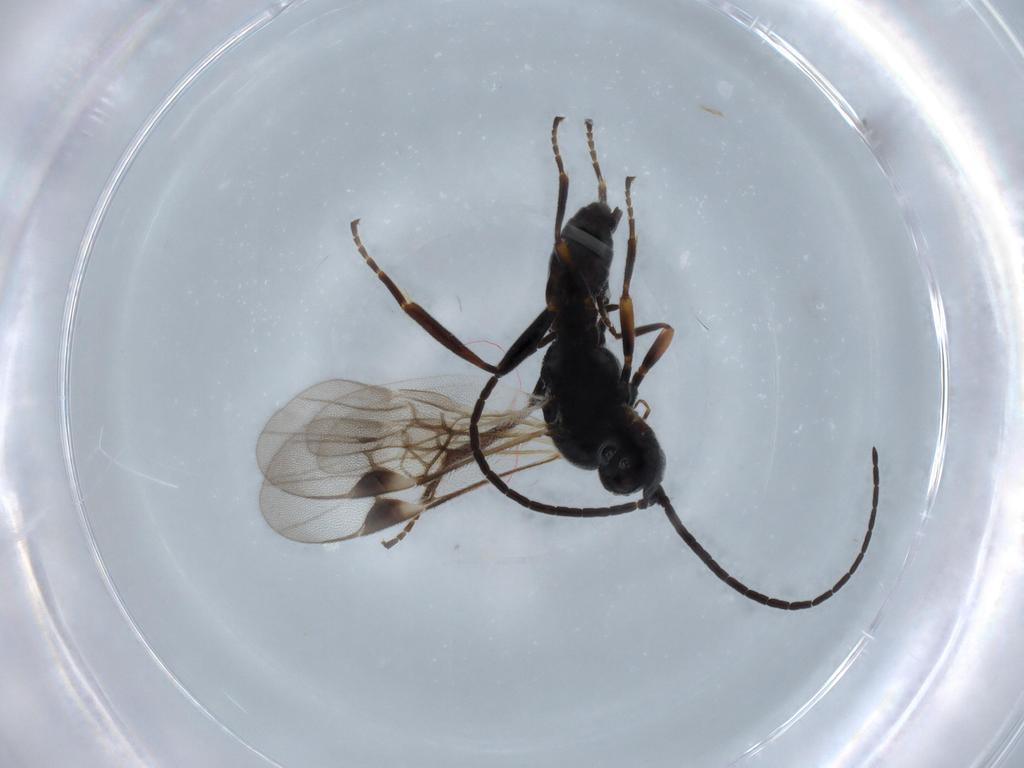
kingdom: Animalia
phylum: Arthropoda
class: Insecta
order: Hymenoptera
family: Braconidae
